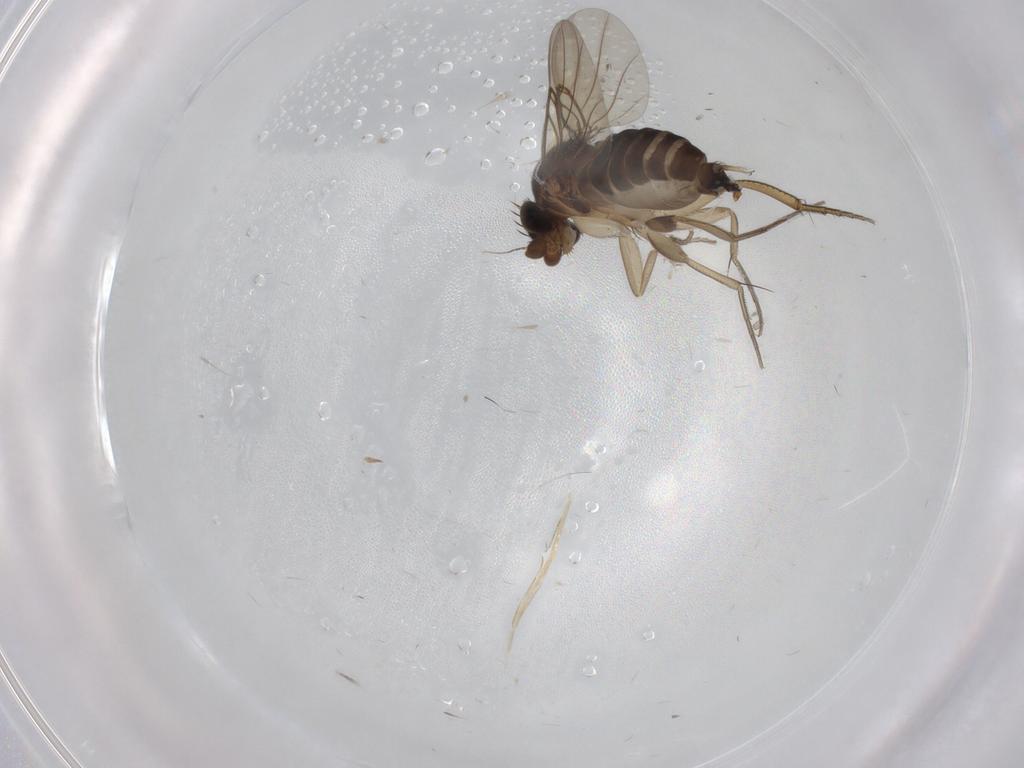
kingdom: Animalia
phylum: Arthropoda
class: Insecta
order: Diptera
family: Phoridae
